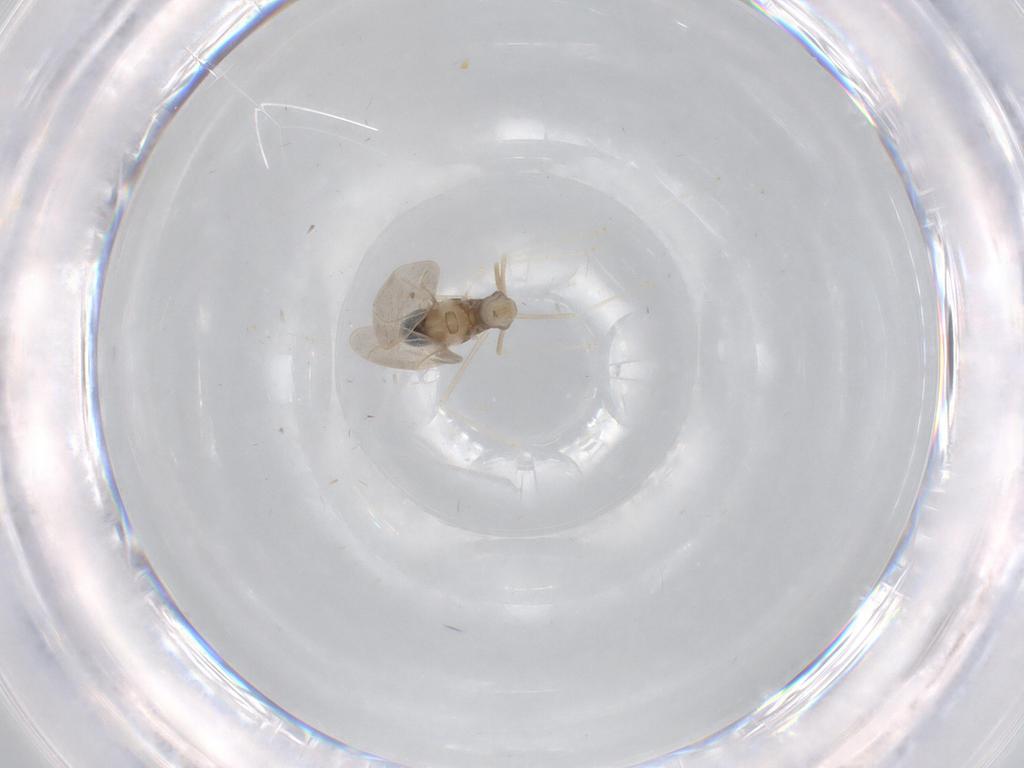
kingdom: Animalia
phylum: Arthropoda
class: Insecta
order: Diptera
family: Cecidomyiidae
